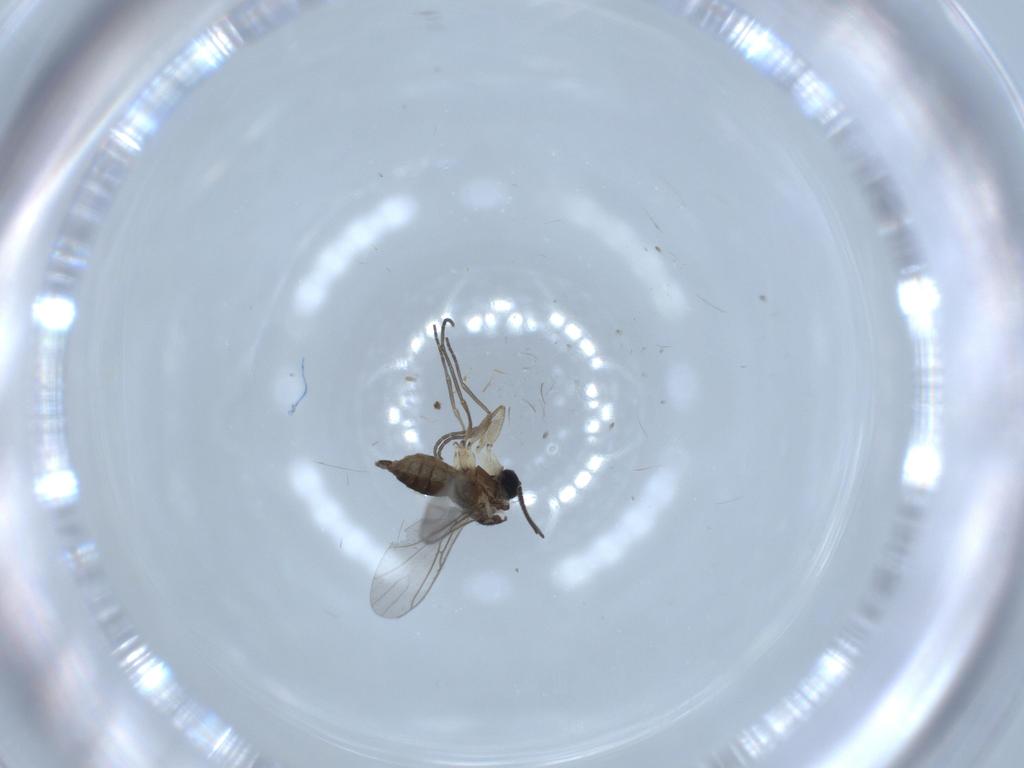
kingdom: Animalia
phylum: Arthropoda
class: Insecta
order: Diptera
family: Sciaridae
